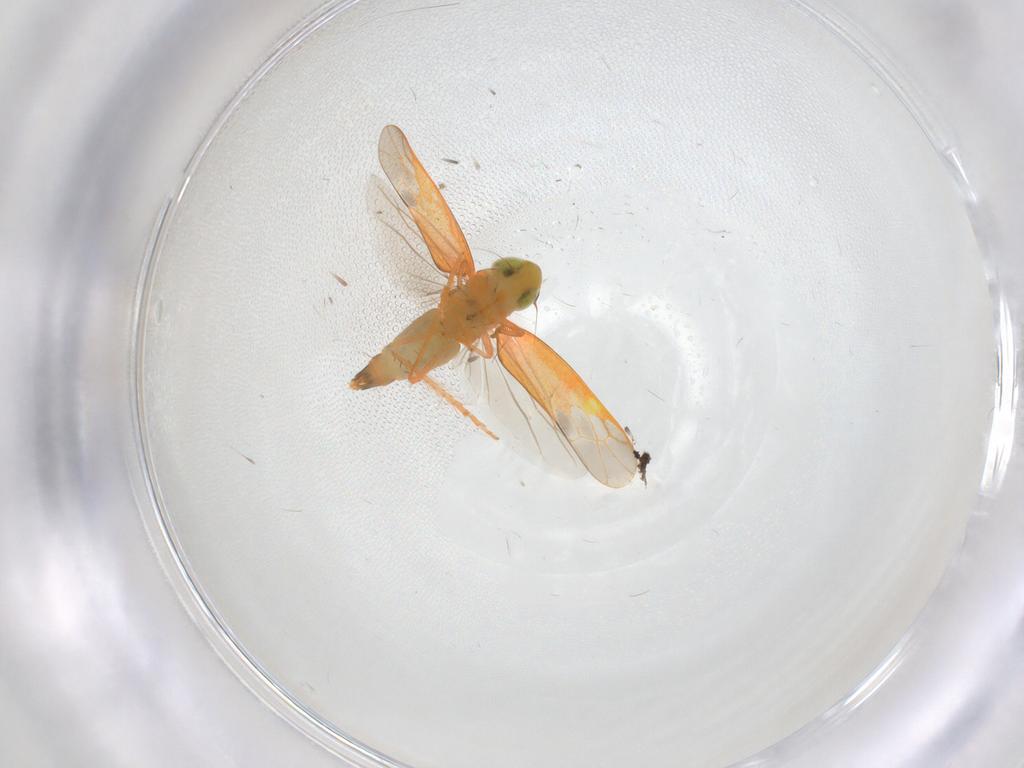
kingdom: Animalia
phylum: Arthropoda
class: Insecta
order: Hemiptera
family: Cicadellidae
